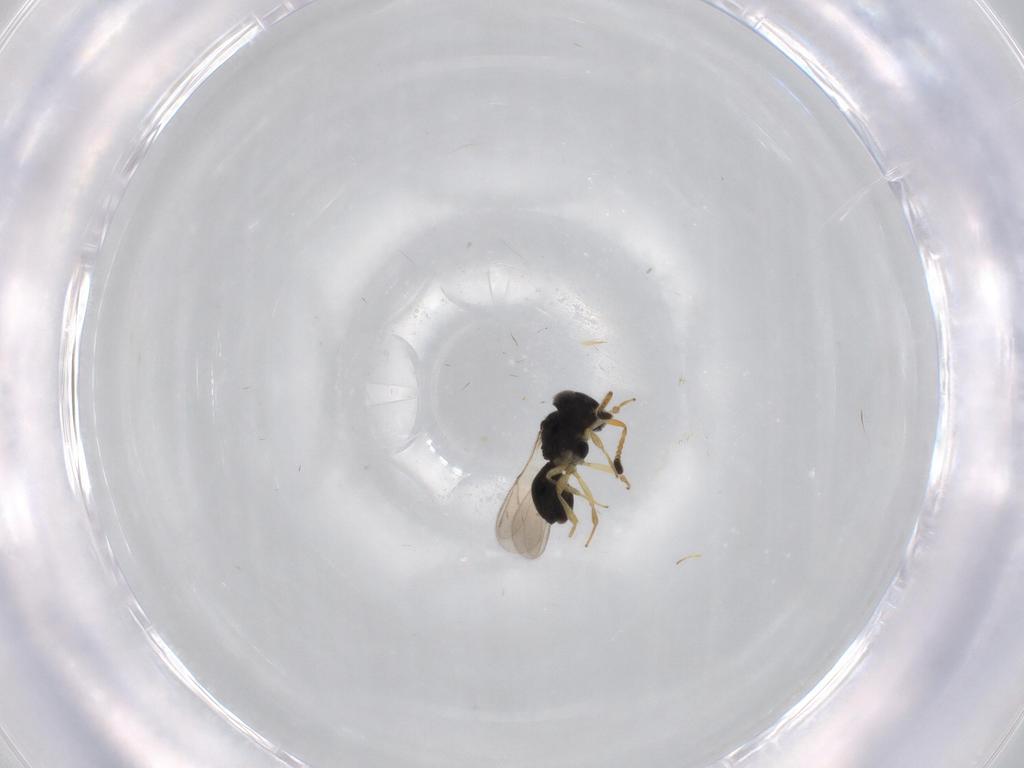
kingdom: Animalia
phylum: Arthropoda
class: Insecta
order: Hymenoptera
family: Scelionidae
